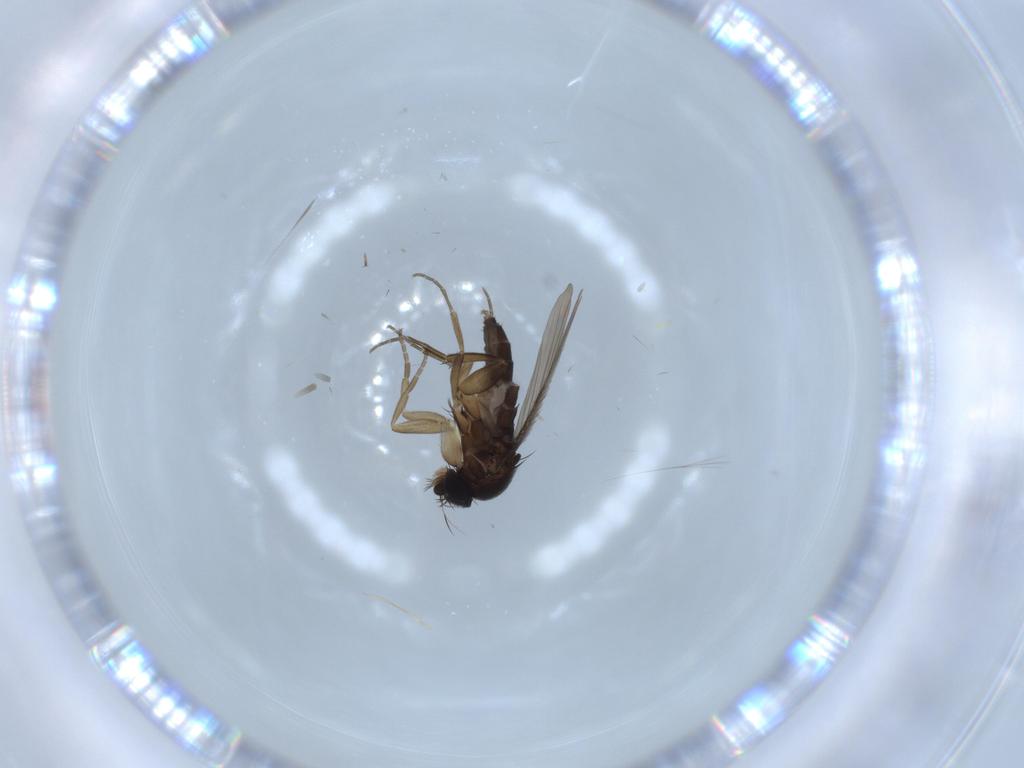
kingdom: Animalia
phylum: Arthropoda
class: Insecta
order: Diptera
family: Phoridae
